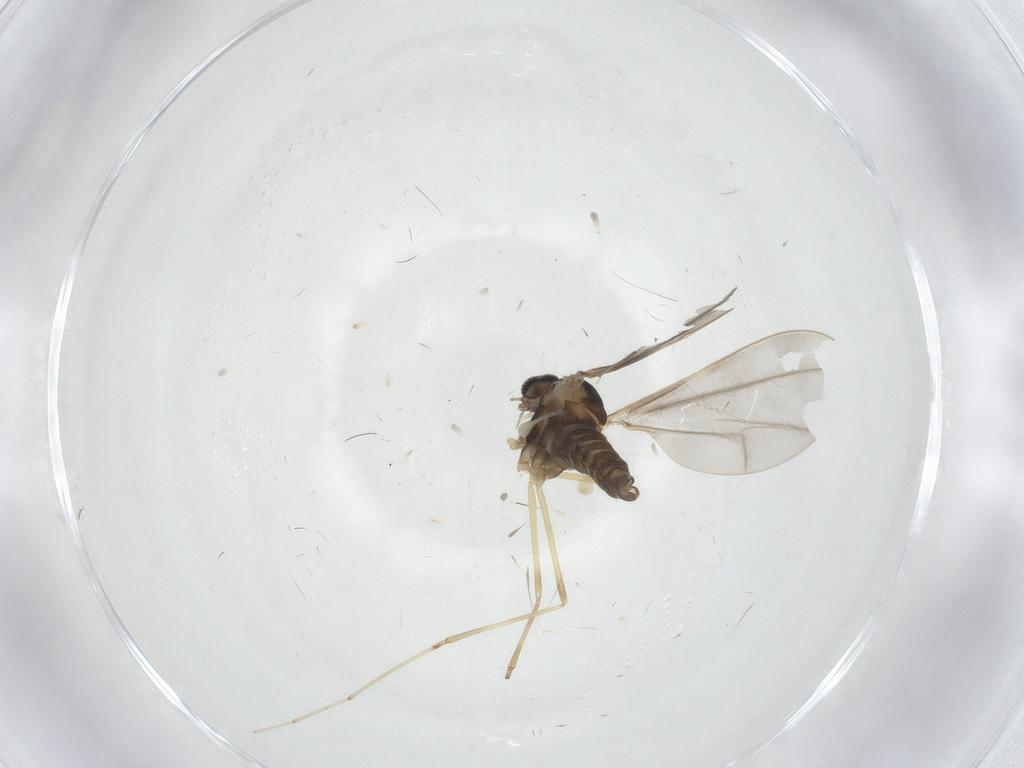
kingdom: Animalia
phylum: Arthropoda
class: Insecta
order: Diptera
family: Cecidomyiidae
